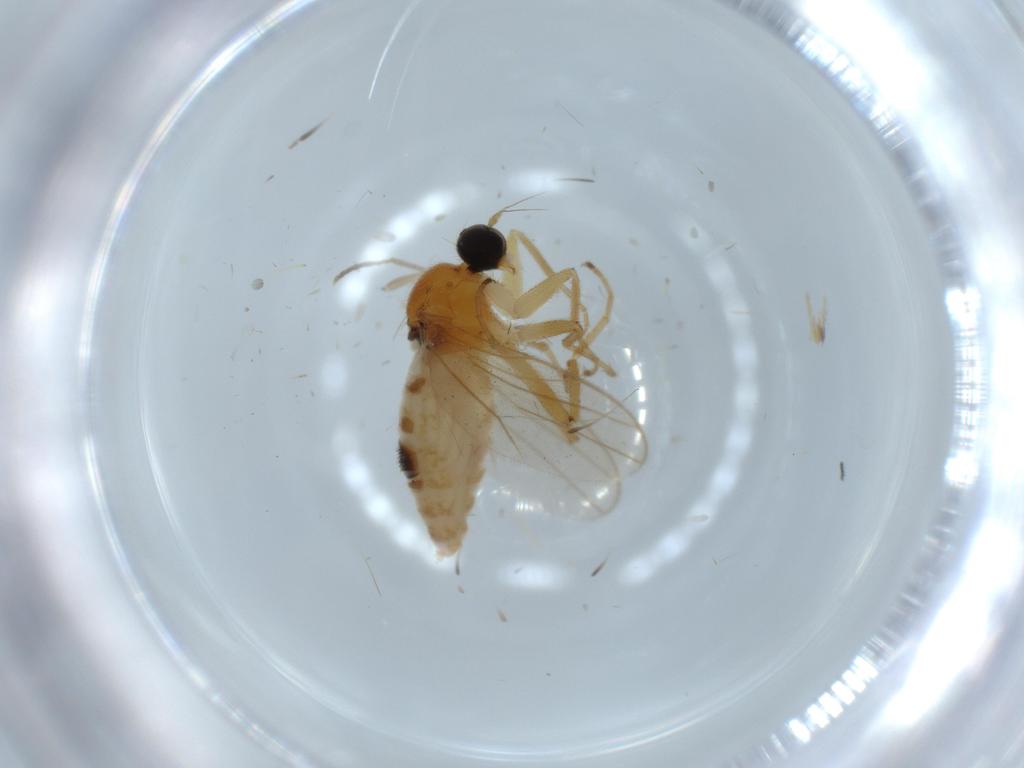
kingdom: Animalia
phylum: Arthropoda
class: Insecta
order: Diptera
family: Hybotidae
